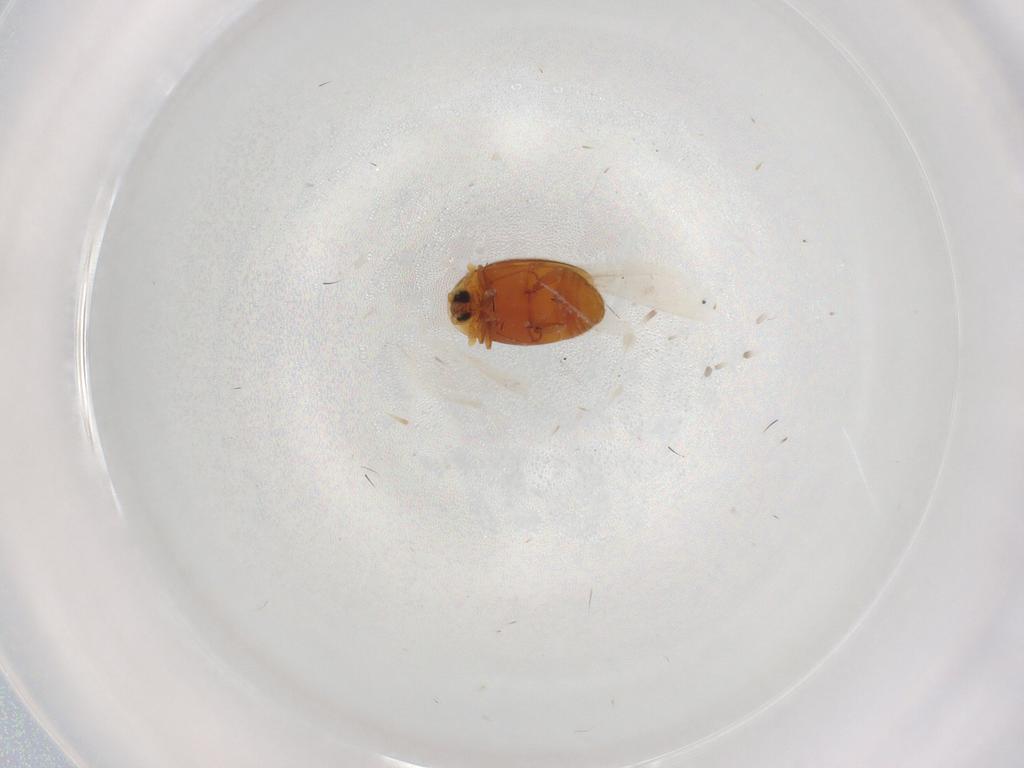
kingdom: Animalia
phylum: Arthropoda
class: Insecta
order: Coleoptera
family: Corylophidae
